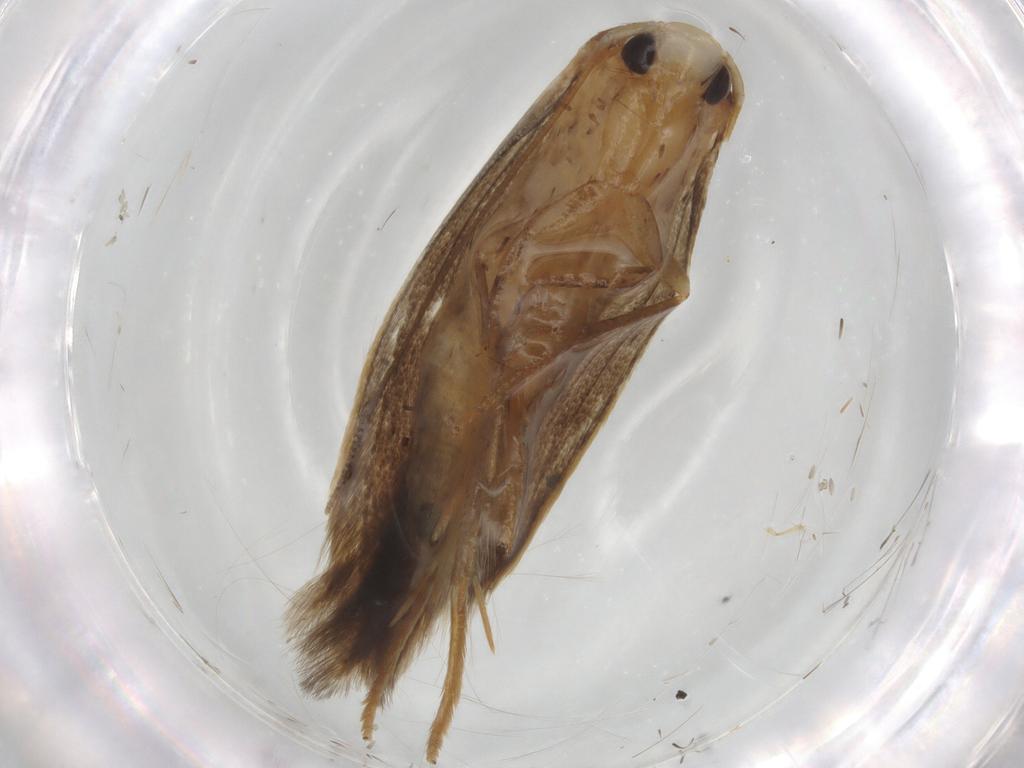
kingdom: Animalia
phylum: Arthropoda
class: Insecta
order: Lepidoptera
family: Tineidae
